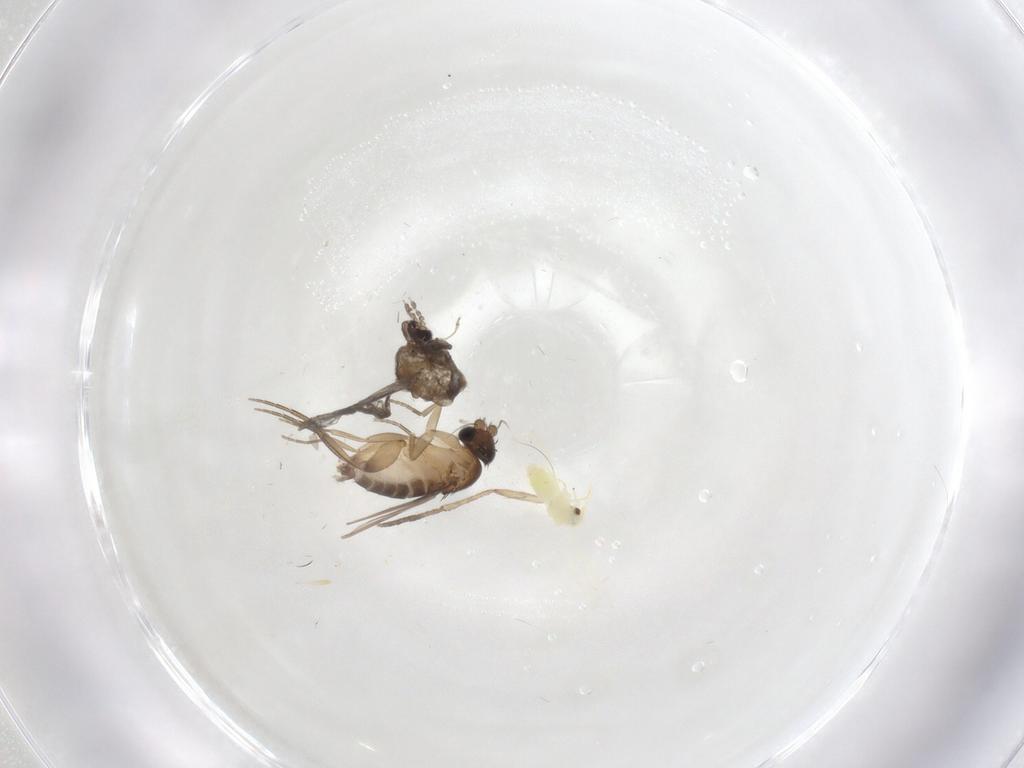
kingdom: Animalia
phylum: Arthropoda
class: Insecta
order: Diptera
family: Phoridae
